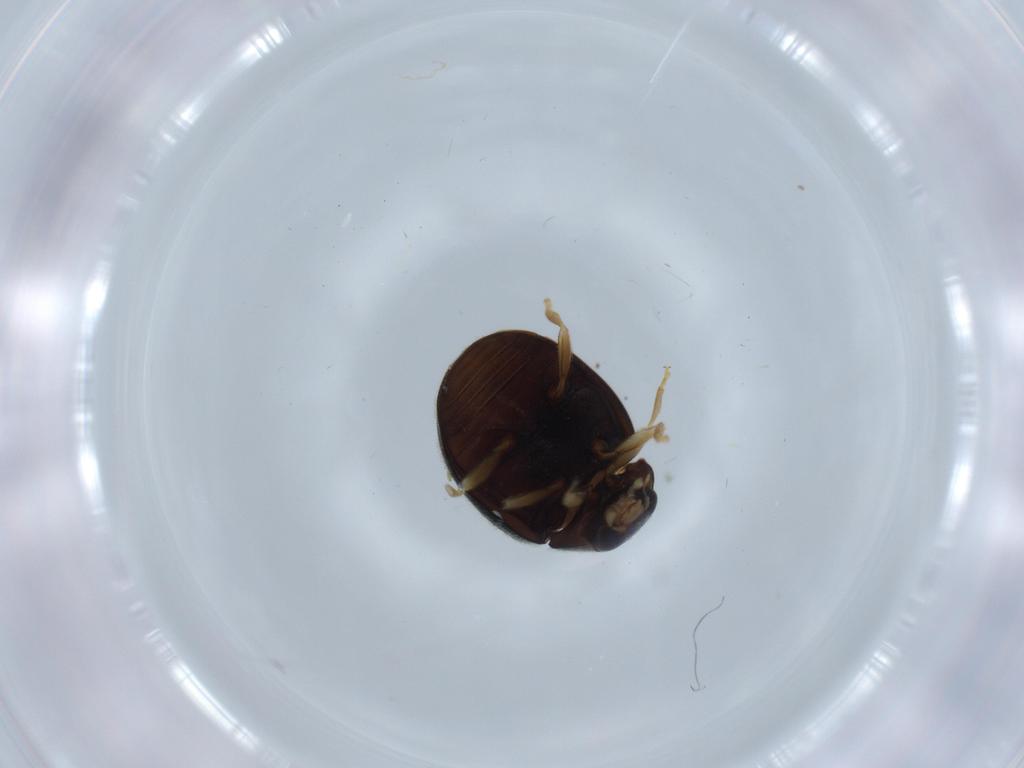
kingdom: Animalia
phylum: Arthropoda
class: Insecta
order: Coleoptera
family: Coccinellidae
